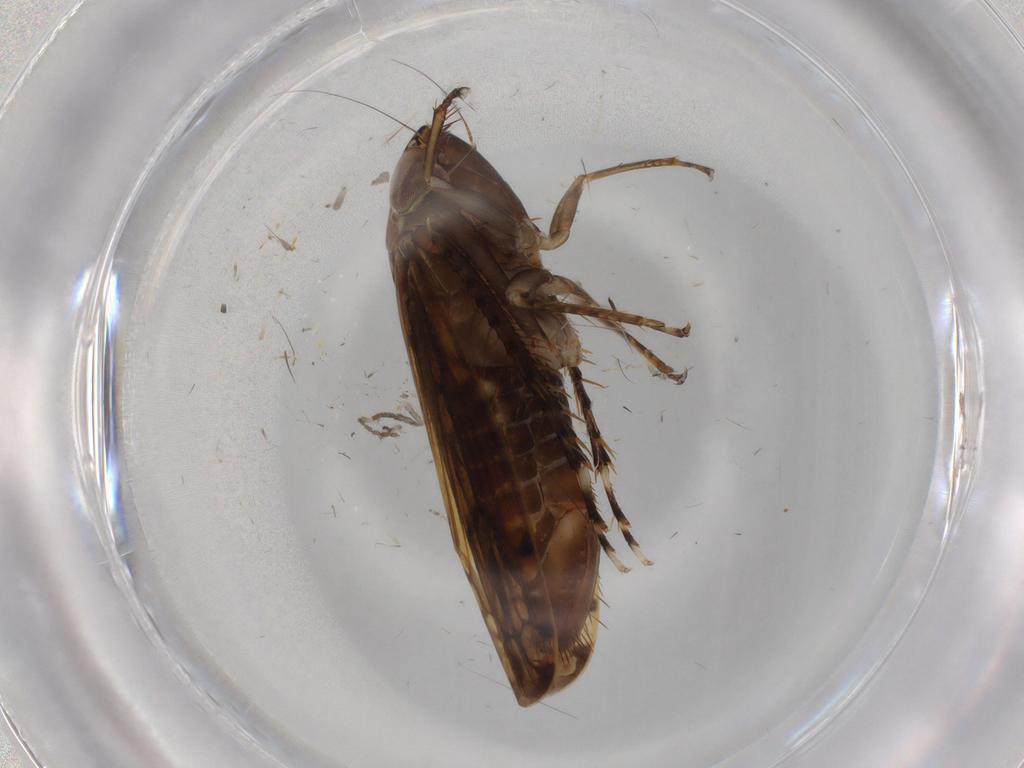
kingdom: Animalia
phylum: Arthropoda
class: Insecta
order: Hemiptera
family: Cicadellidae
